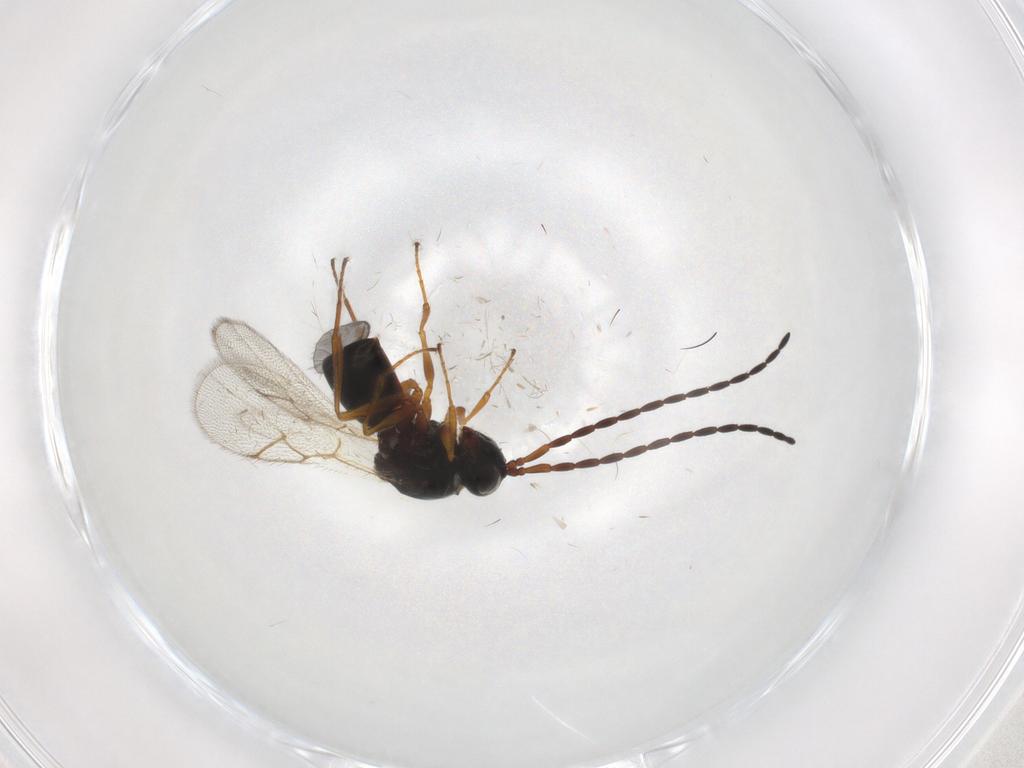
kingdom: Animalia
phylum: Arthropoda
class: Insecta
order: Hymenoptera
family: Figitidae
